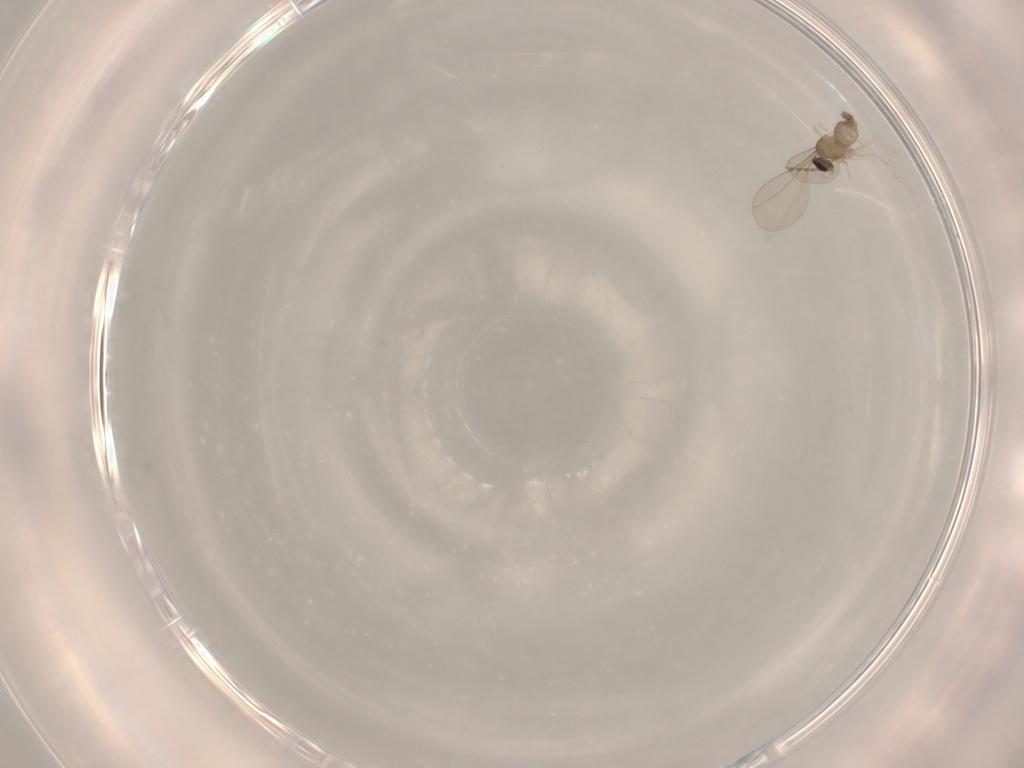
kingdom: Animalia
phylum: Arthropoda
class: Insecta
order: Diptera
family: Cecidomyiidae
